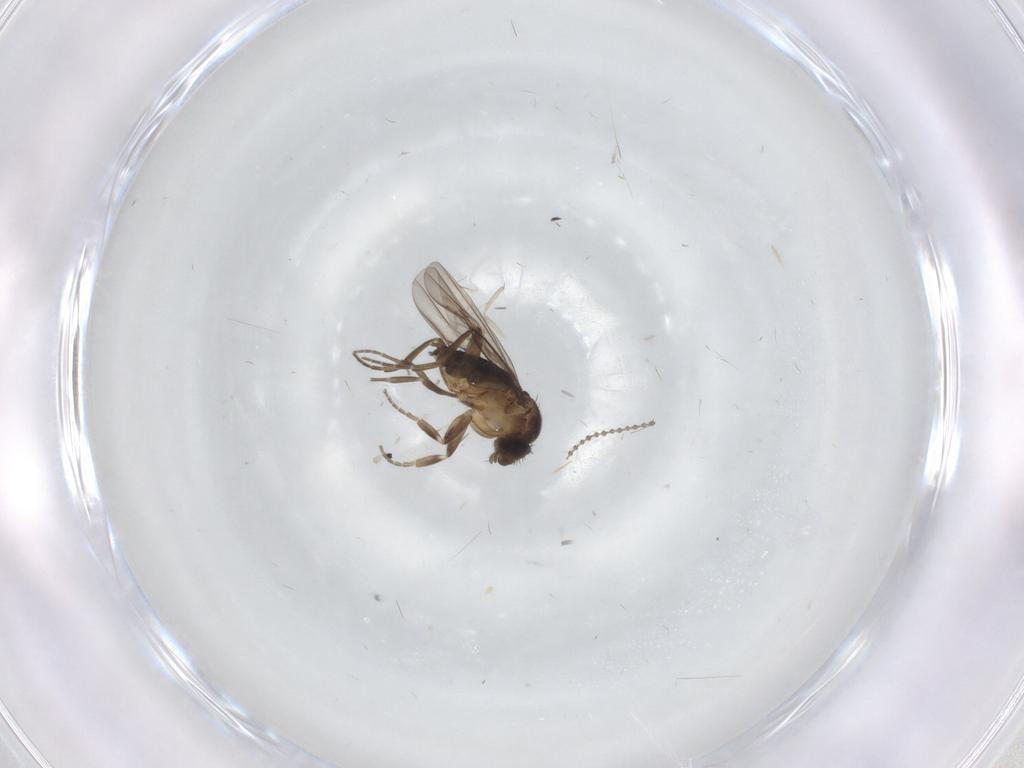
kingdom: Animalia
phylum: Arthropoda
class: Insecta
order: Diptera
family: Cecidomyiidae
